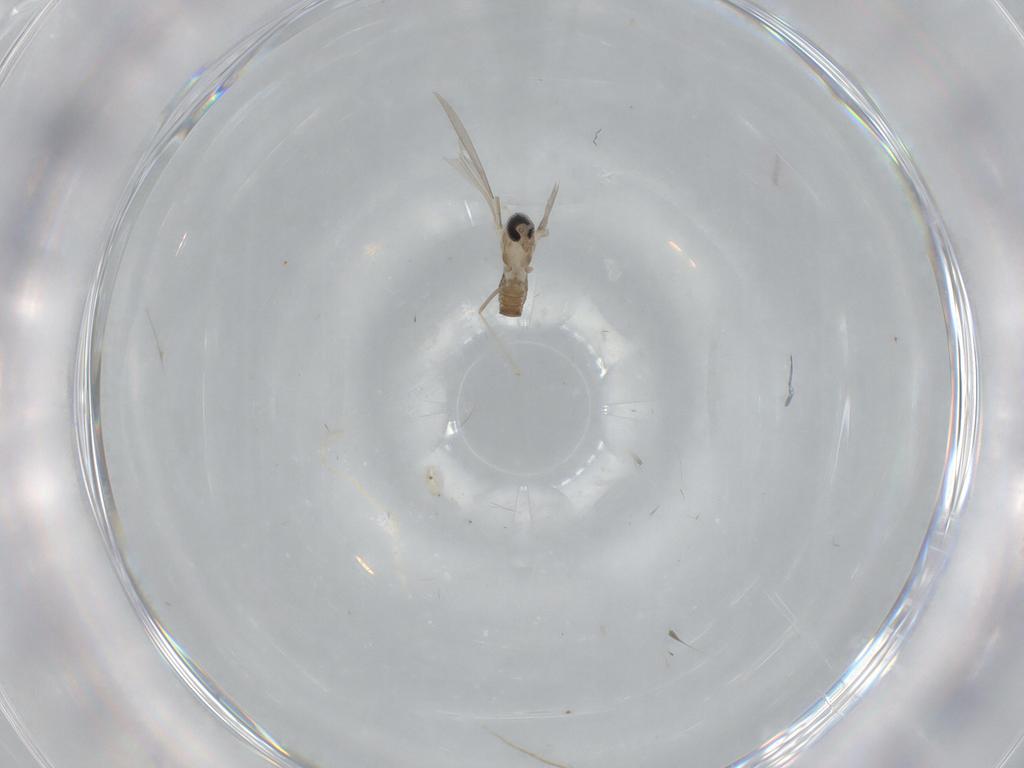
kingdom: Animalia
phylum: Arthropoda
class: Insecta
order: Diptera
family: Cecidomyiidae
